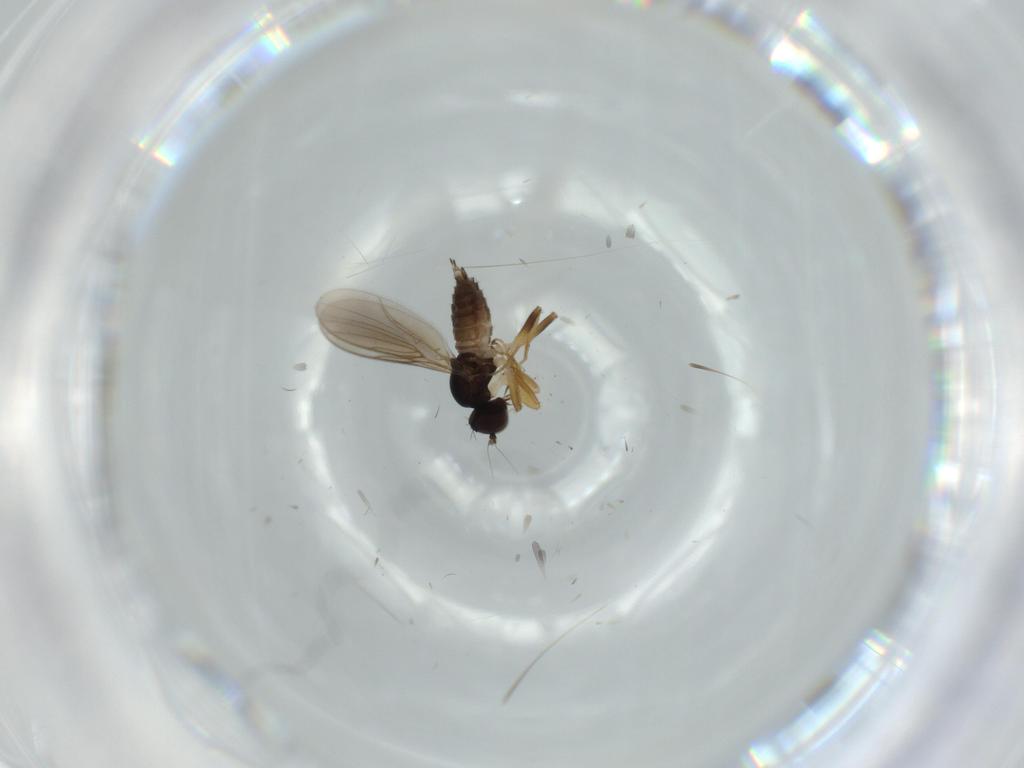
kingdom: Animalia
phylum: Arthropoda
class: Insecta
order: Diptera
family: Hybotidae
